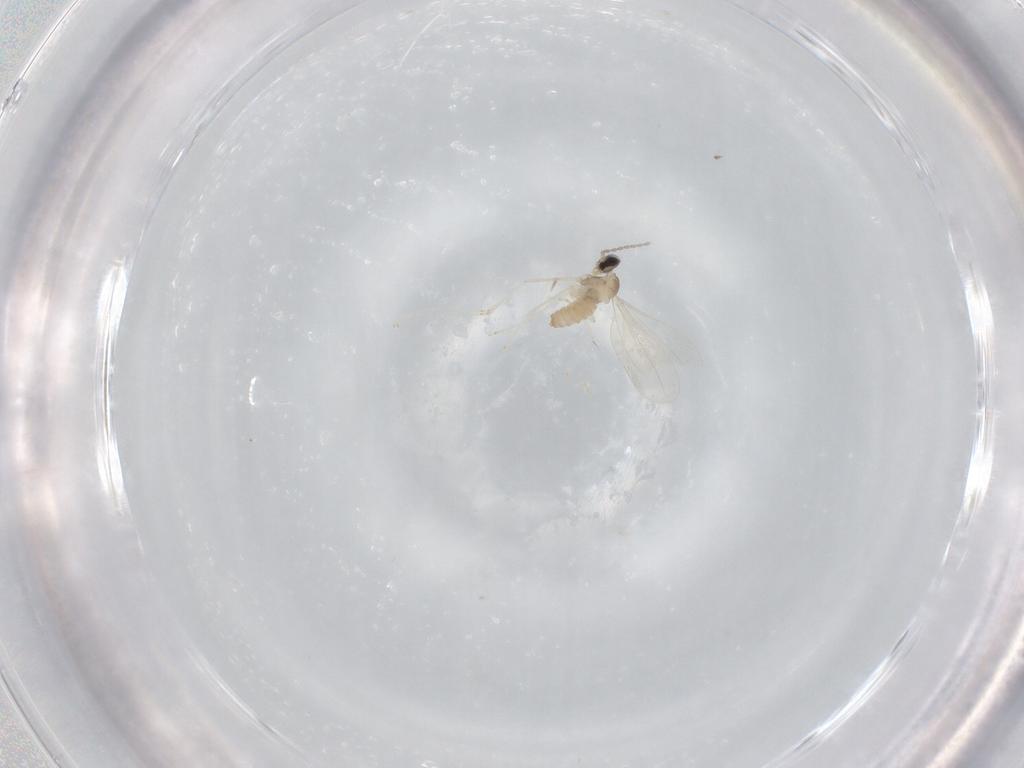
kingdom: Animalia
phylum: Arthropoda
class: Insecta
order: Diptera
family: Cecidomyiidae
